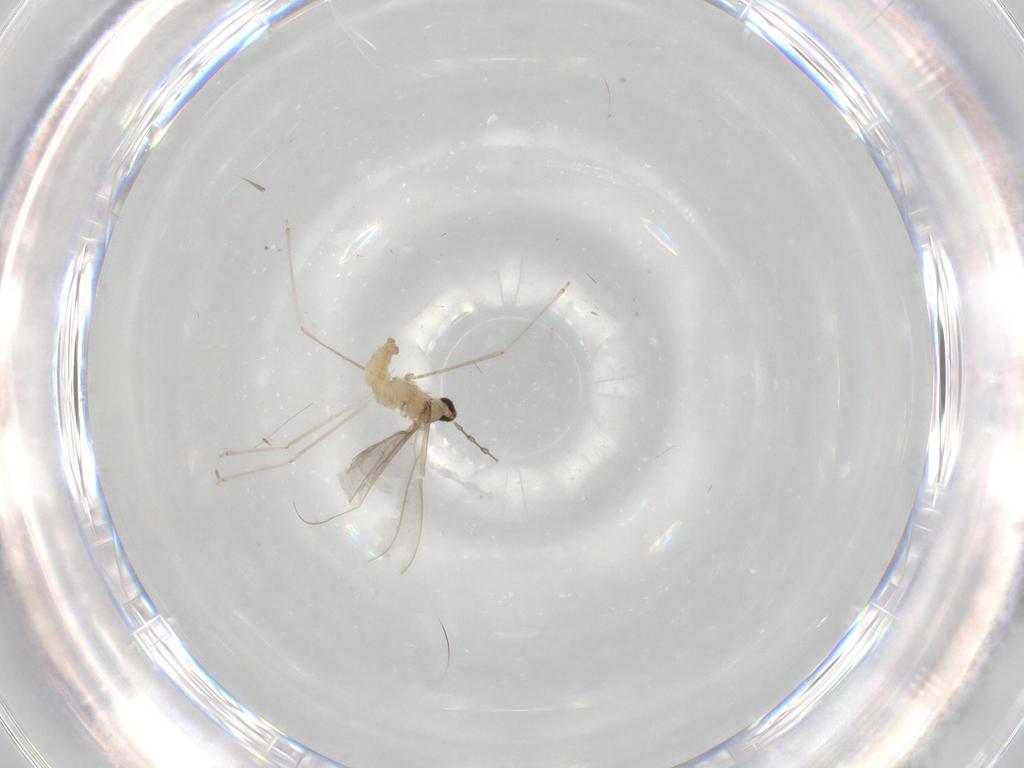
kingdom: Animalia
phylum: Arthropoda
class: Insecta
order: Diptera
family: Cecidomyiidae
